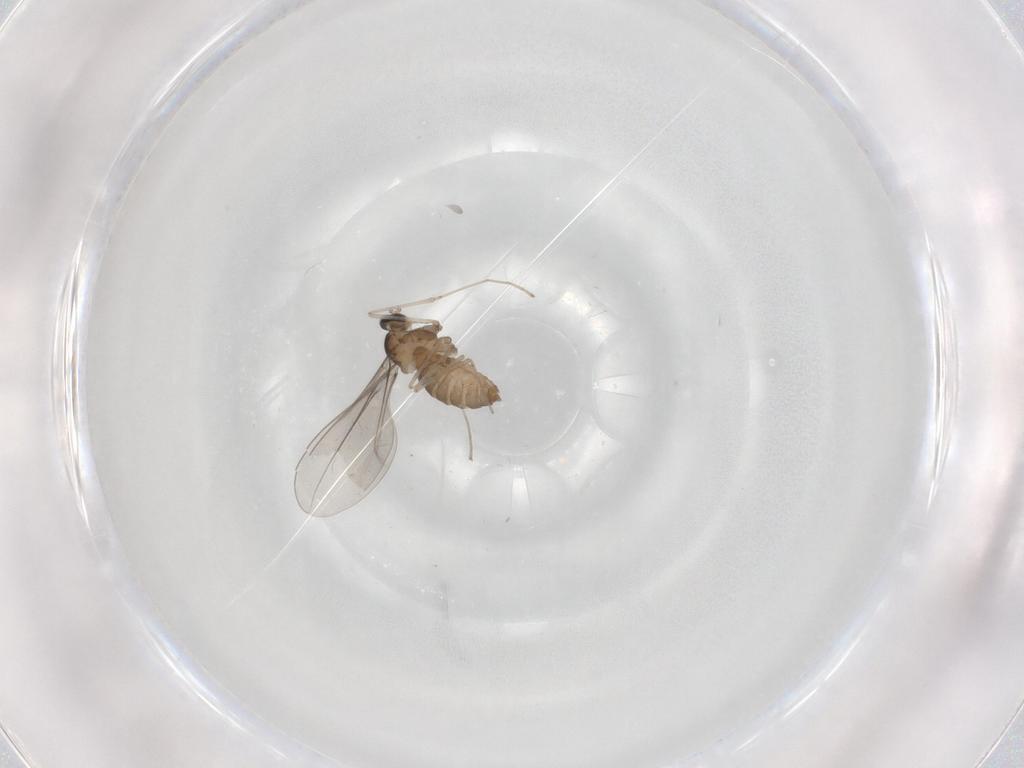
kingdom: Animalia
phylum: Arthropoda
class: Insecta
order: Diptera
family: Cecidomyiidae
